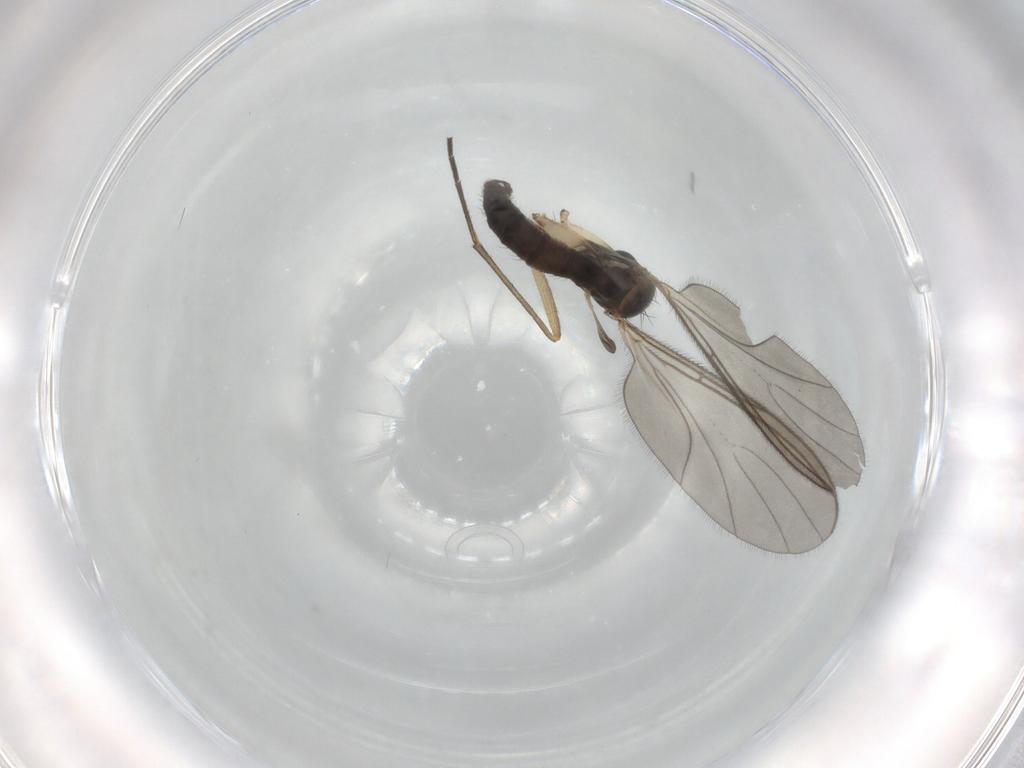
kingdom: Animalia
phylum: Arthropoda
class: Insecta
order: Diptera
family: Sciaridae
